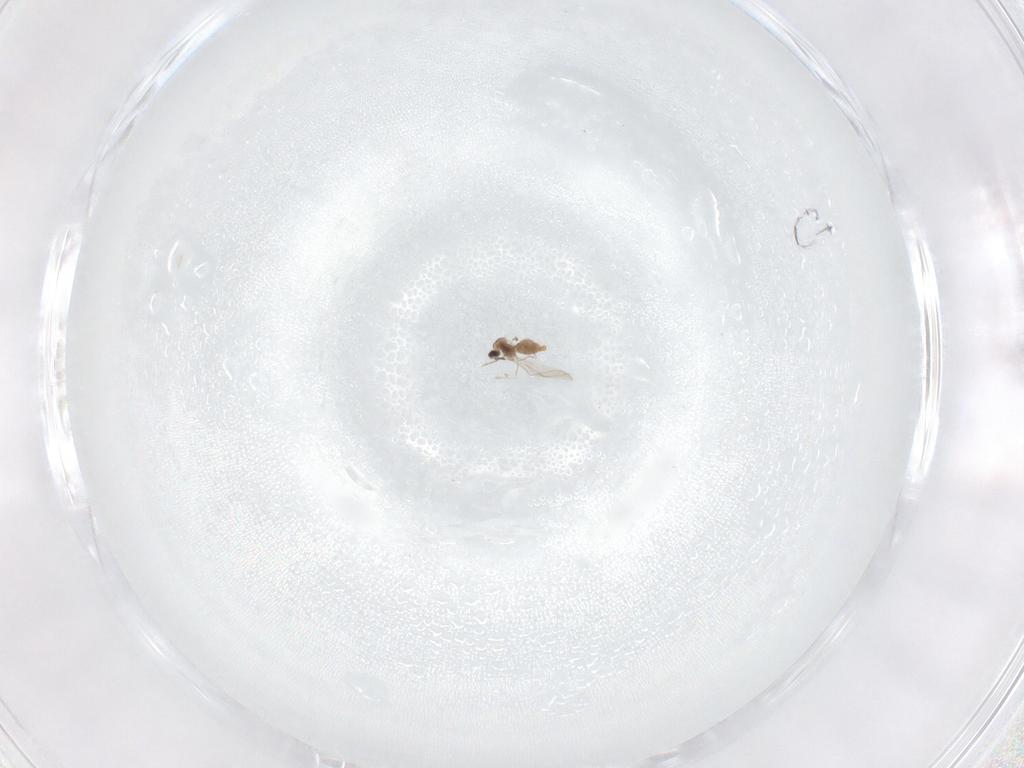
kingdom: Animalia
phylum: Arthropoda
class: Insecta
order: Diptera
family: Cecidomyiidae
